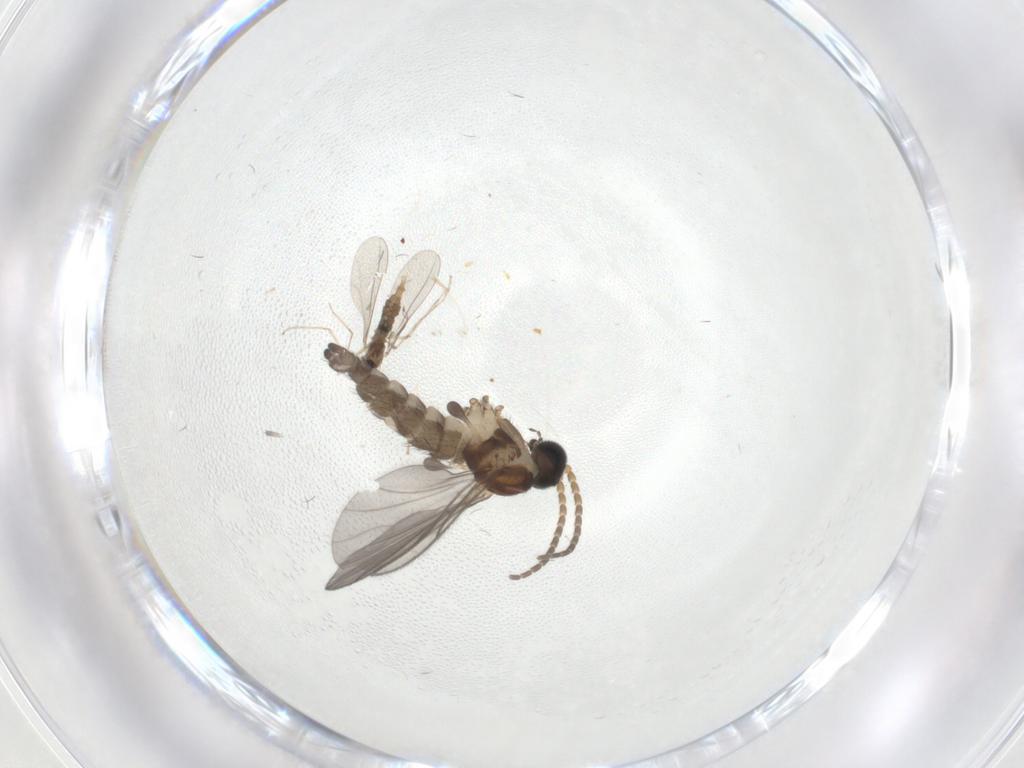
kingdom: Animalia
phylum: Arthropoda
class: Insecta
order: Diptera
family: Sciaridae
